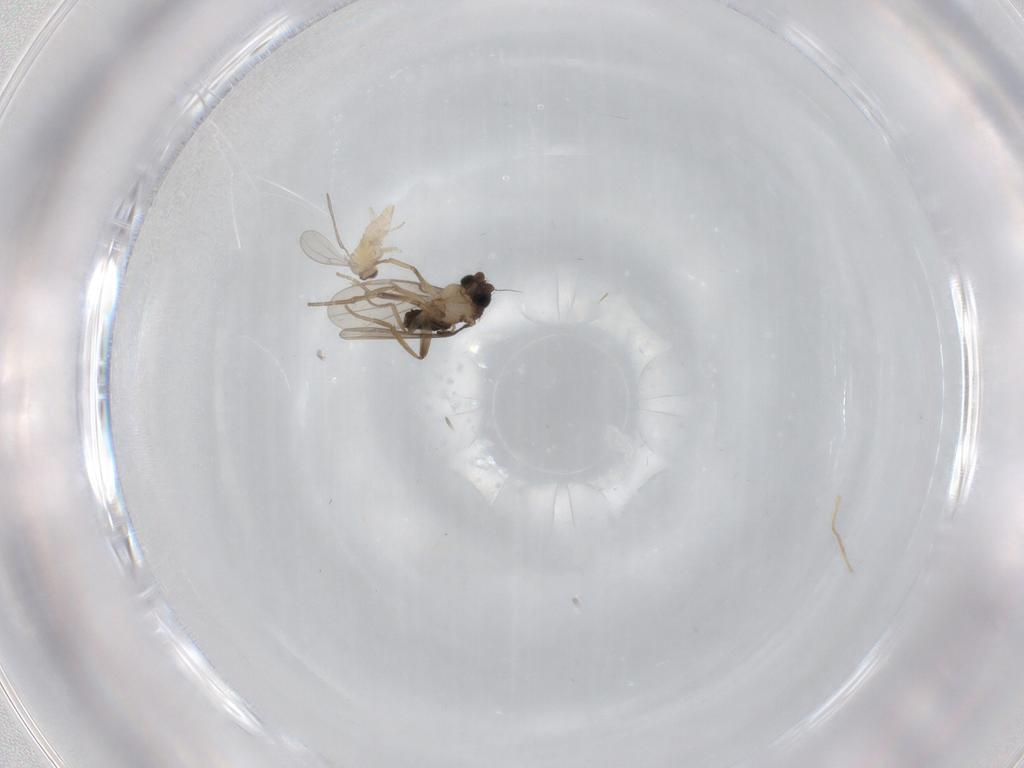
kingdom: Animalia
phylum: Arthropoda
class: Insecta
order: Diptera
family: Cecidomyiidae
